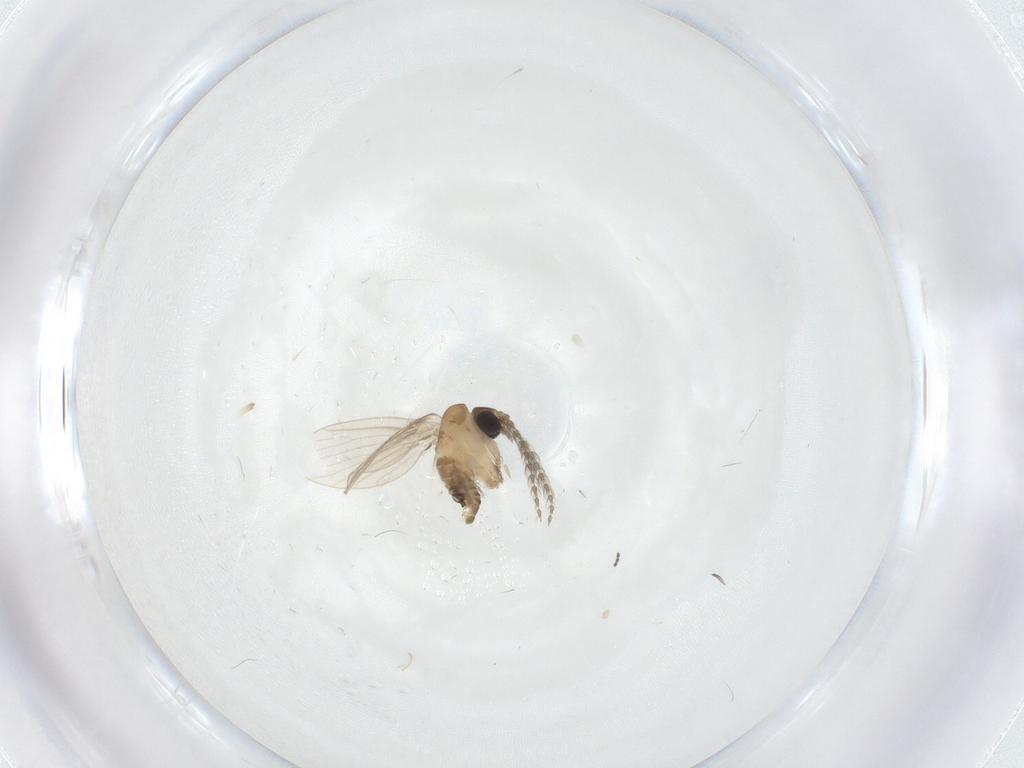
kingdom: Animalia
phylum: Arthropoda
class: Insecta
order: Diptera
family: Psychodidae
